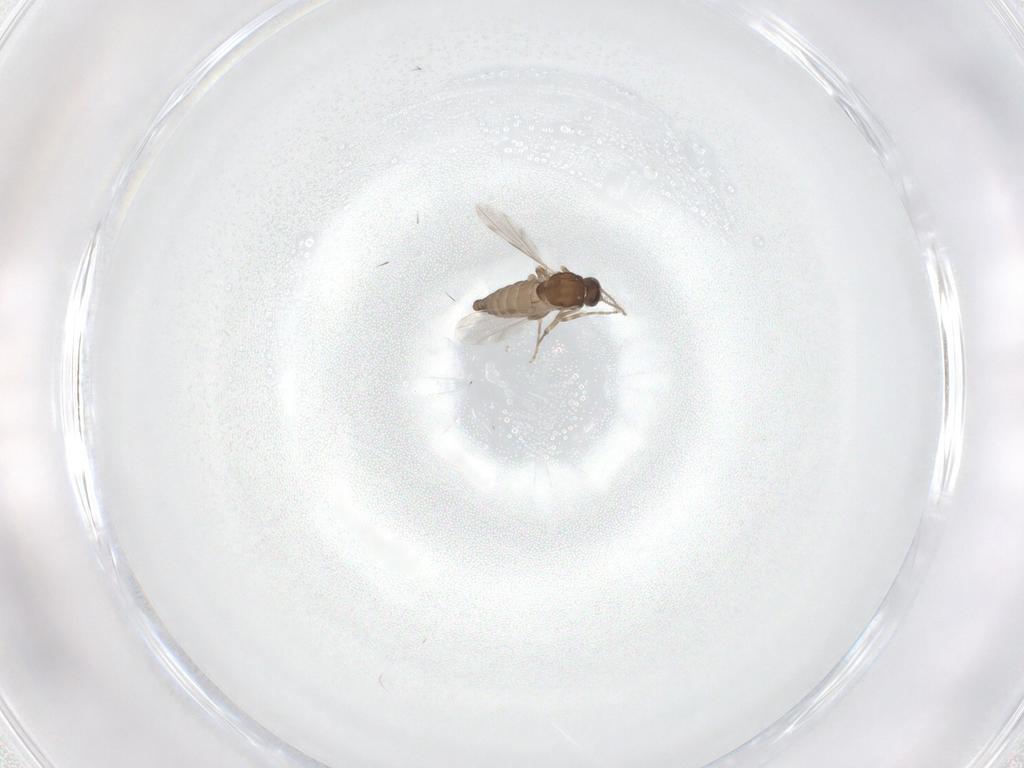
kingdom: Animalia
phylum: Arthropoda
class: Insecta
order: Diptera
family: Ceratopogonidae
